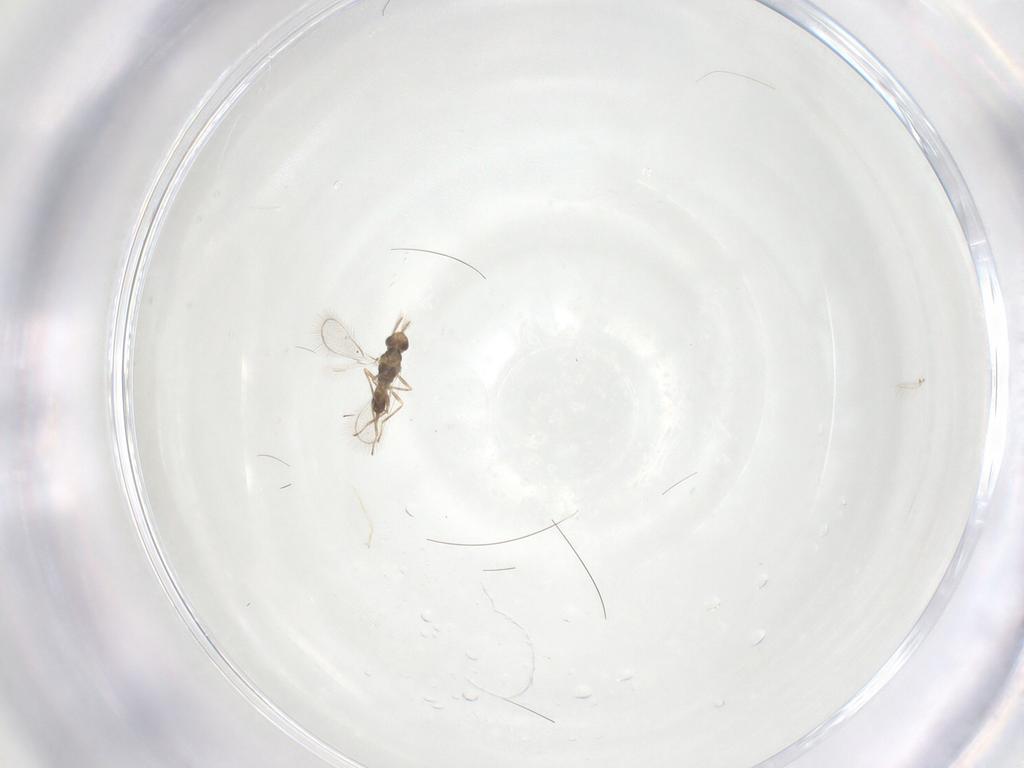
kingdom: Animalia
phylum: Arthropoda
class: Insecta
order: Hymenoptera
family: Eulophidae
